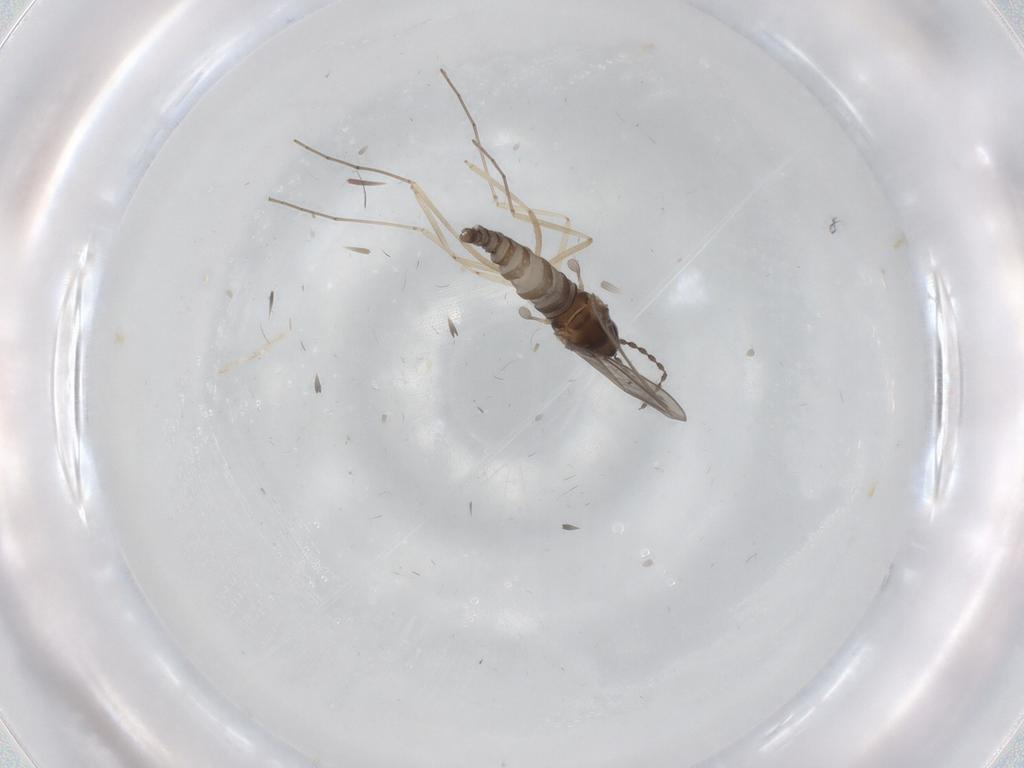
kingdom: Animalia
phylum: Arthropoda
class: Insecta
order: Diptera
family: Cecidomyiidae
